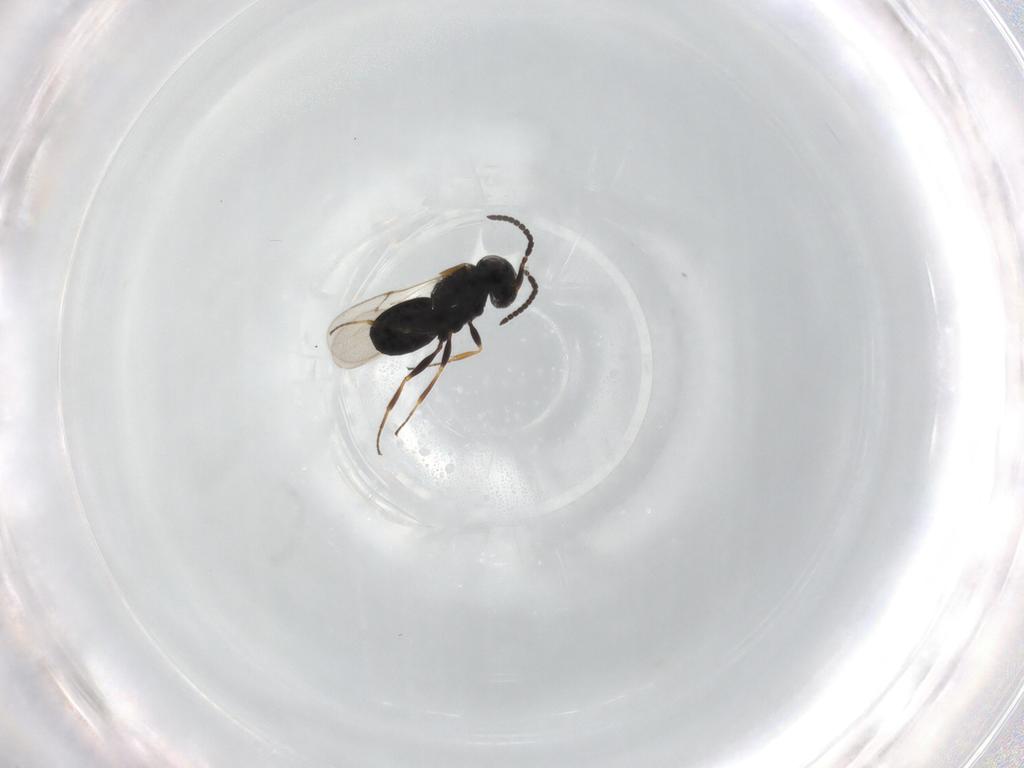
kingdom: Animalia
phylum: Arthropoda
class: Insecta
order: Hymenoptera
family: Scelionidae
